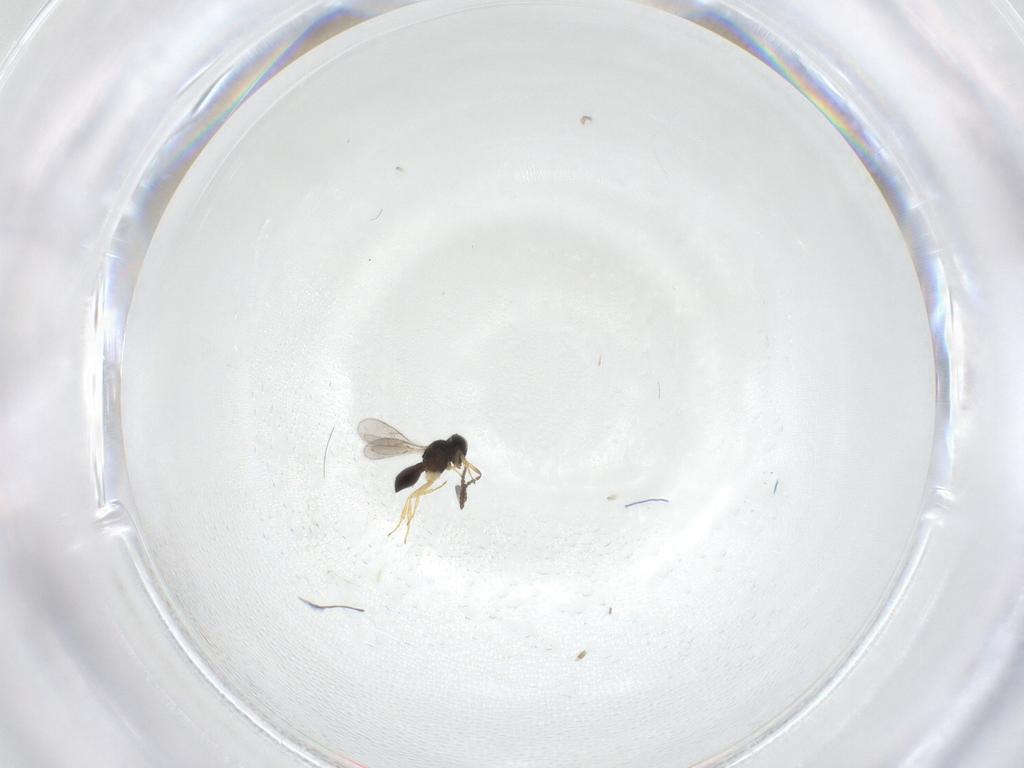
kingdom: Animalia
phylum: Arthropoda
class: Insecta
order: Hymenoptera
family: Scelionidae
